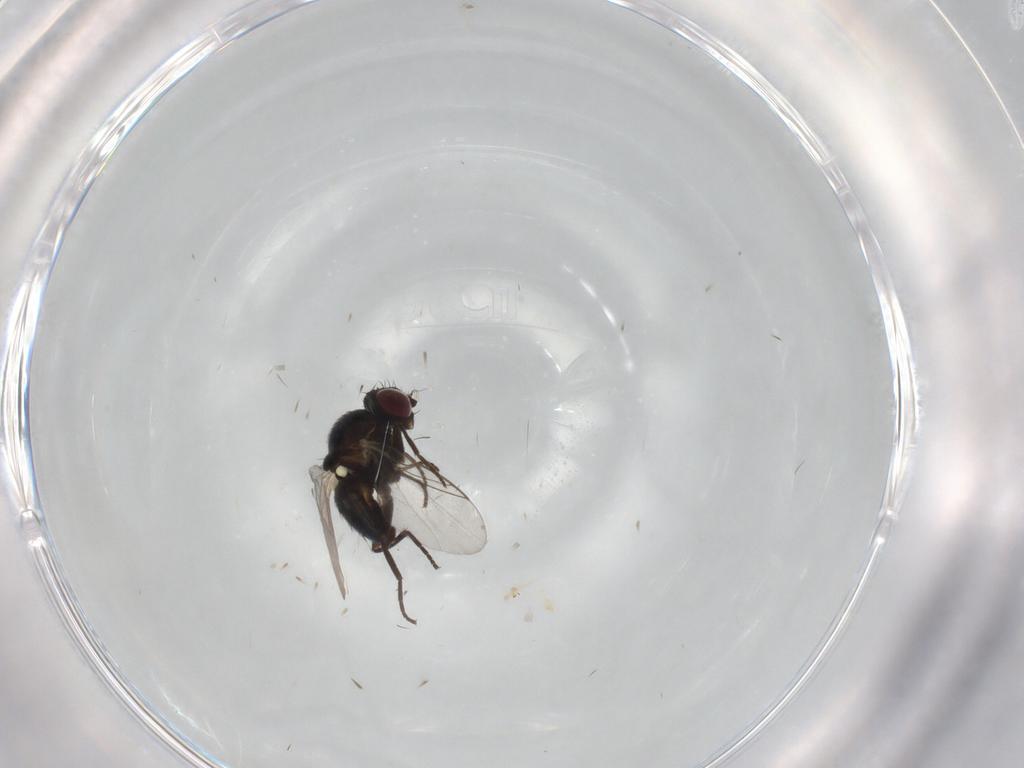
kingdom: Animalia
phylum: Arthropoda
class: Insecta
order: Diptera
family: Agromyzidae
